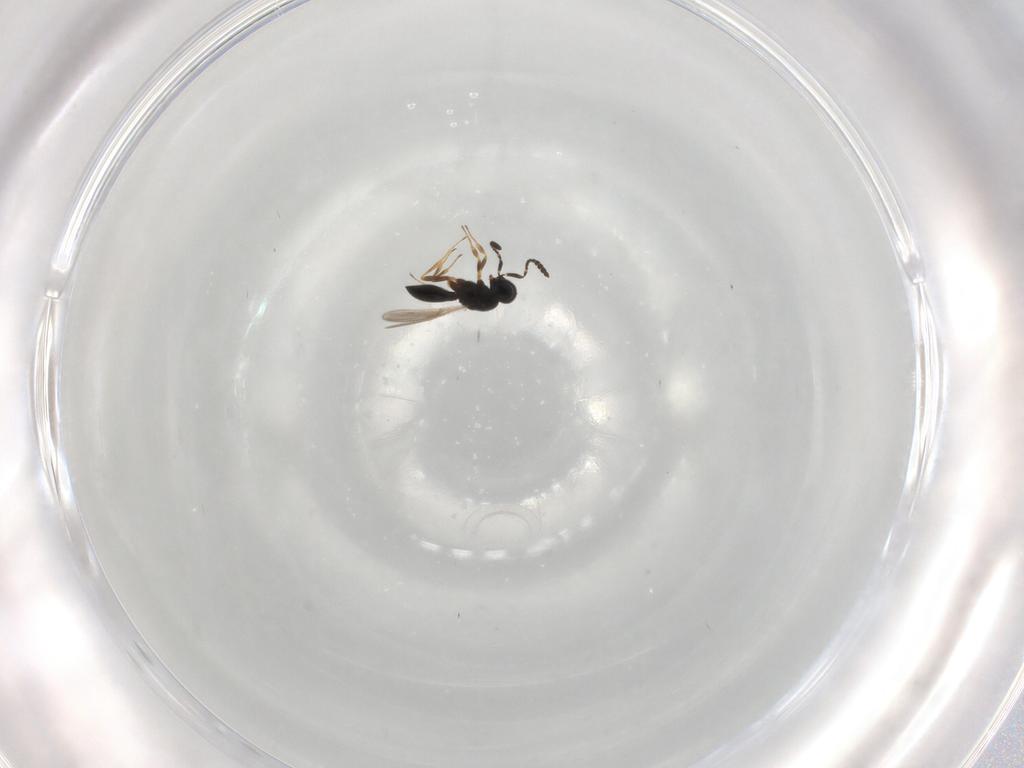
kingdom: Animalia
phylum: Arthropoda
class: Insecta
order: Hymenoptera
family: Scelionidae
